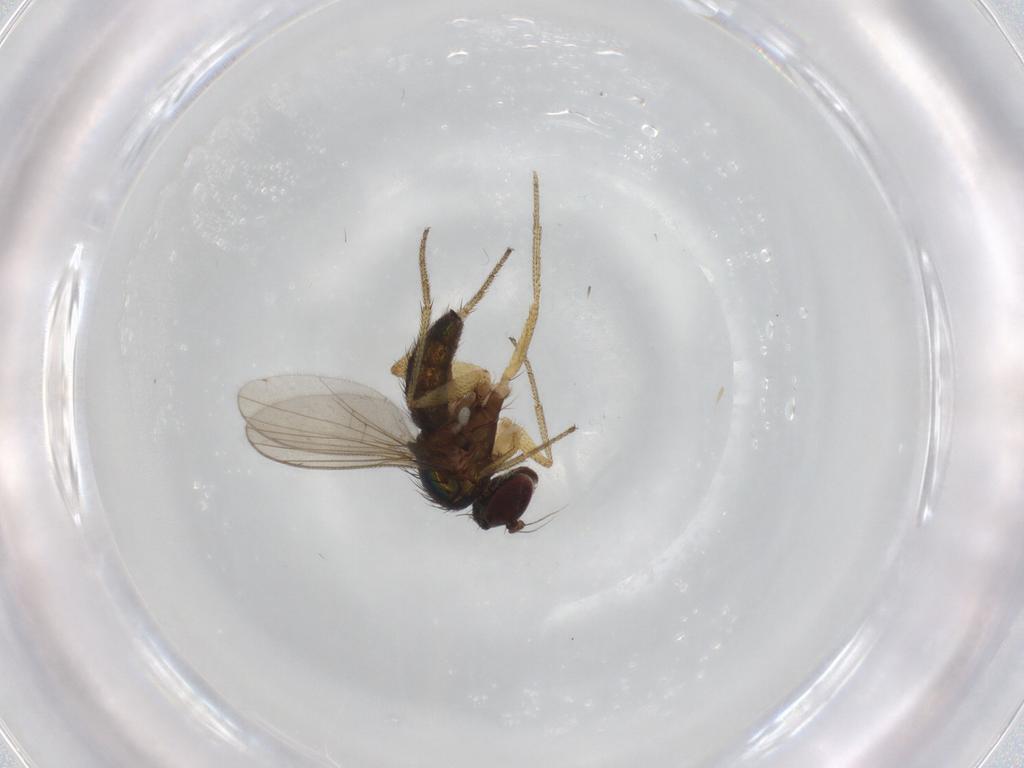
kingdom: Animalia
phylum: Arthropoda
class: Insecta
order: Diptera
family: Dolichopodidae
